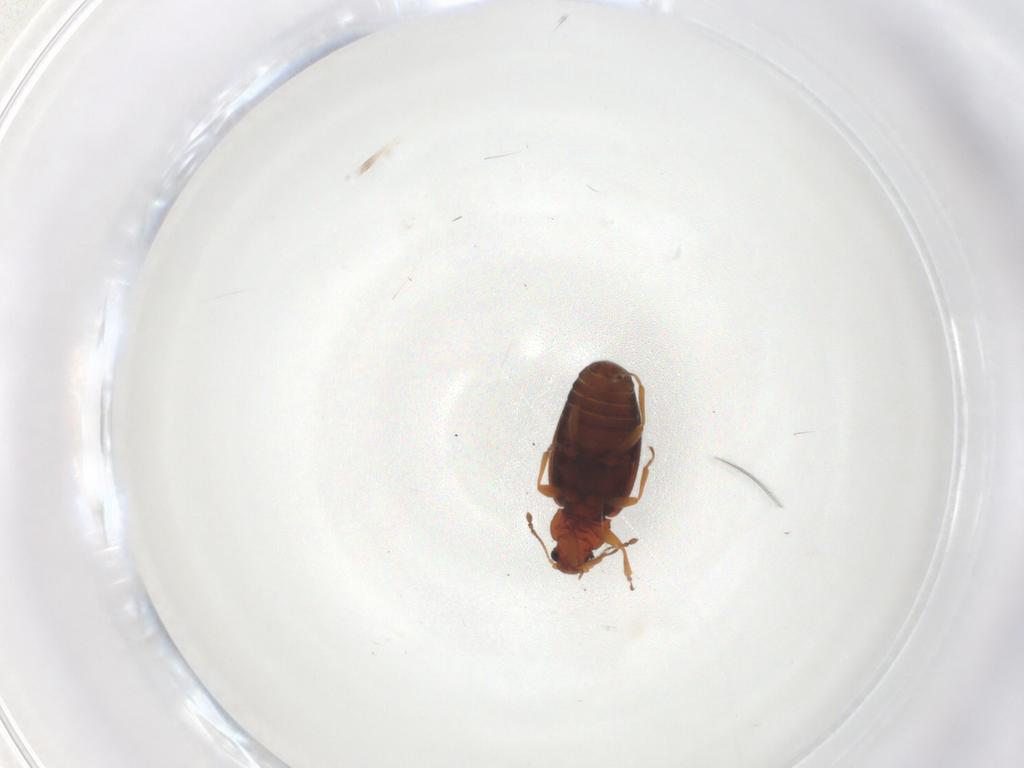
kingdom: Animalia
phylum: Arthropoda
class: Insecta
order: Coleoptera
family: Latridiidae
